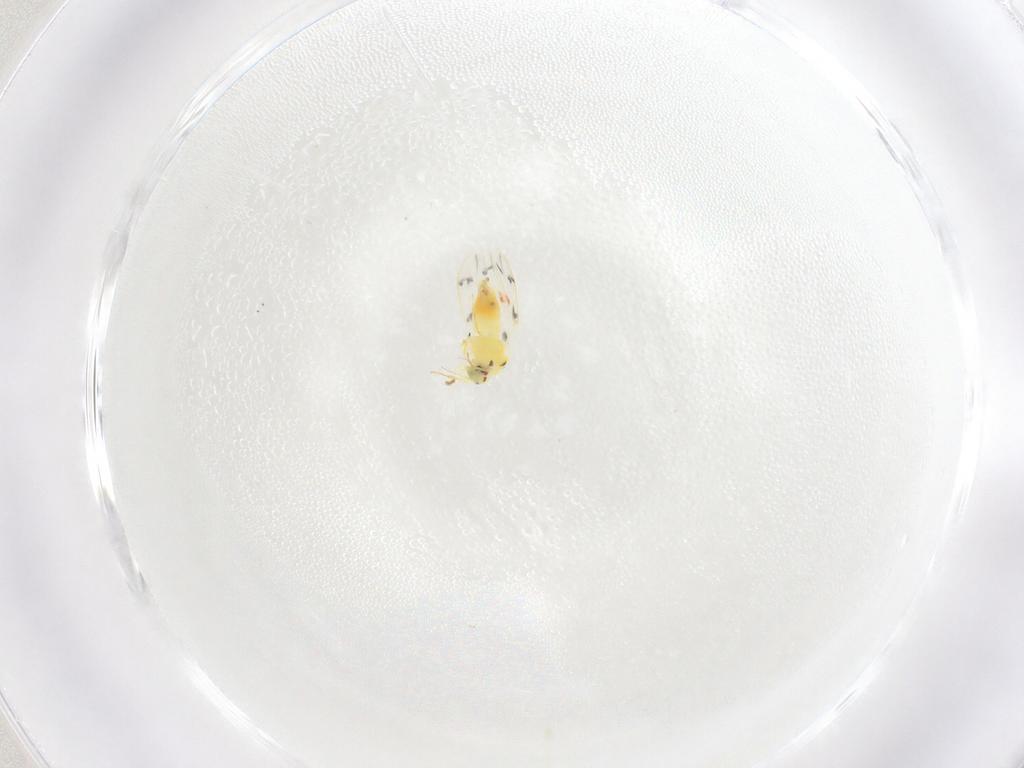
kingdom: Animalia
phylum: Arthropoda
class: Insecta
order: Hemiptera
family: Aleyrodidae
